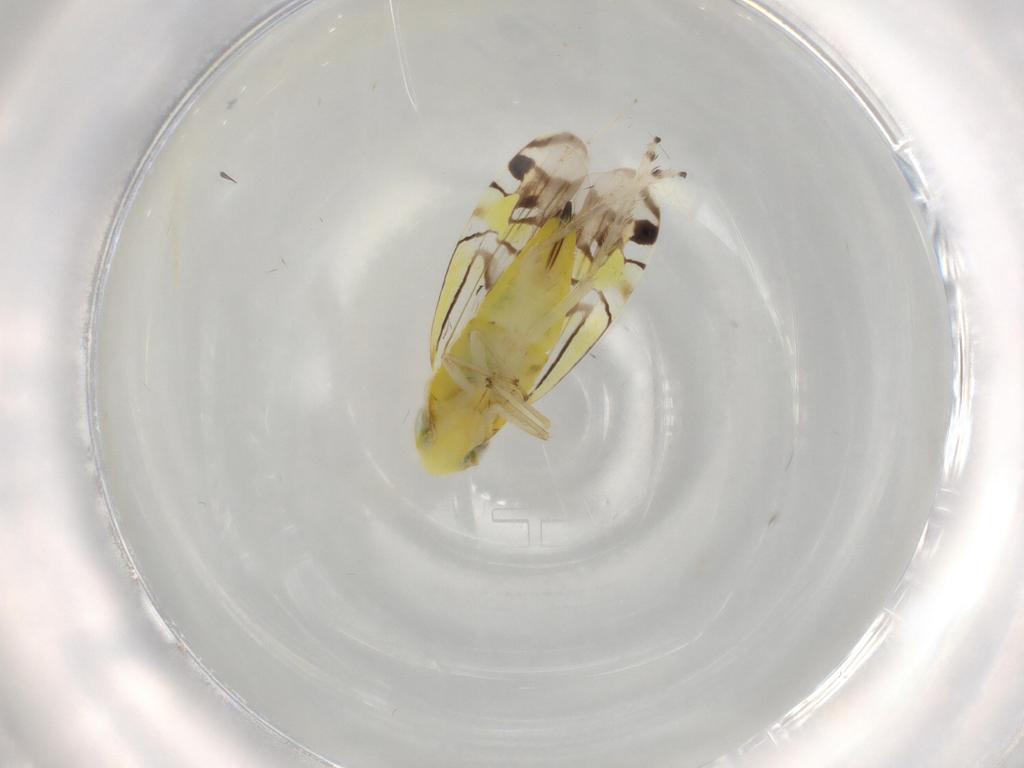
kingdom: Animalia
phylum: Arthropoda
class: Insecta
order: Hemiptera
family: Cicadellidae
